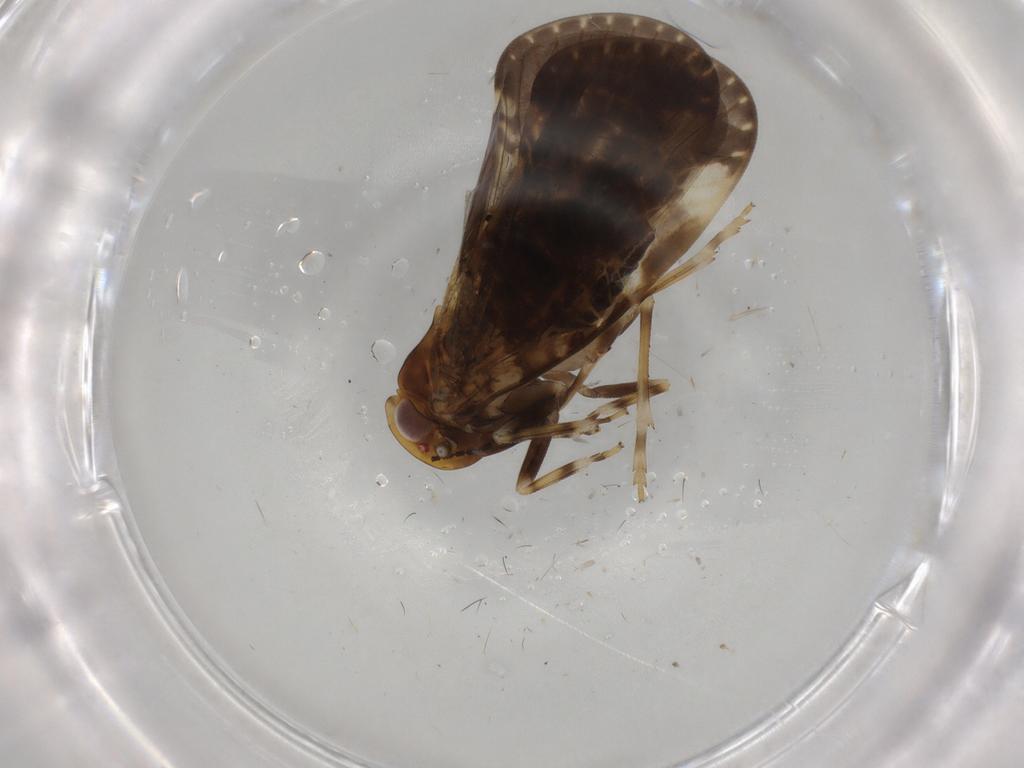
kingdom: Animalia
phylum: Arthropoda
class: Insecta
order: Hemiptera
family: Cixiidae
